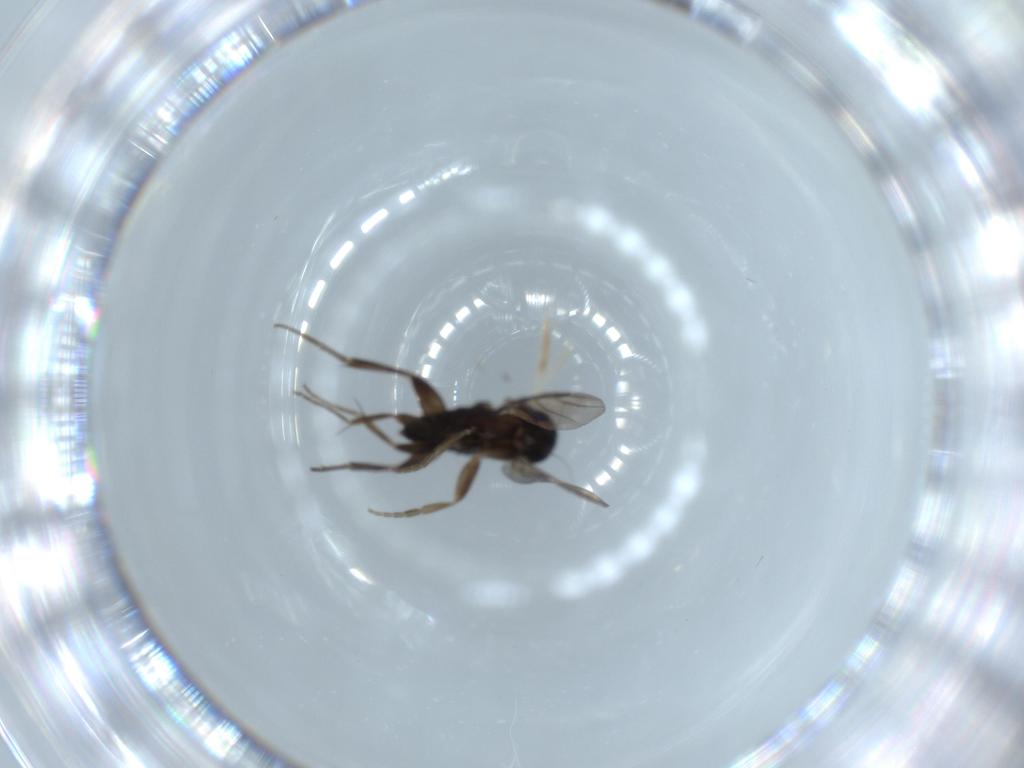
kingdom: Animalia
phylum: Arthropoda
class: Insecta
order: Diptera
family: Cecidomyiidae
